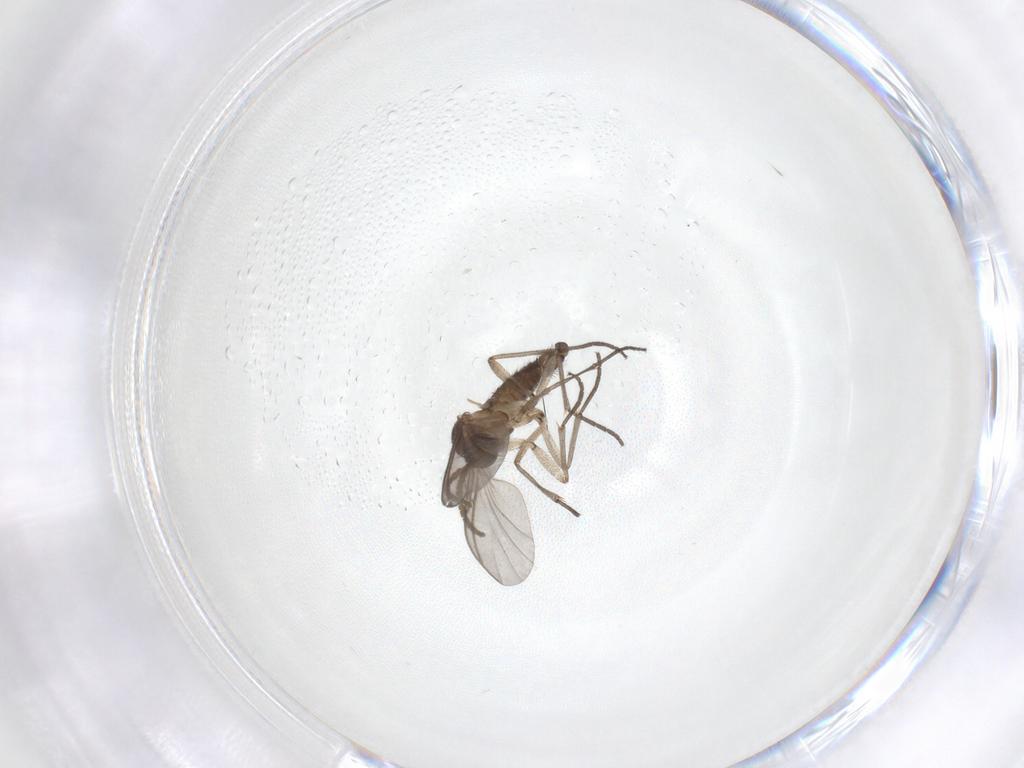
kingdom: Animalia
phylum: Arthropoda
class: Insecta
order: Diptera
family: Cecidomyiidae
